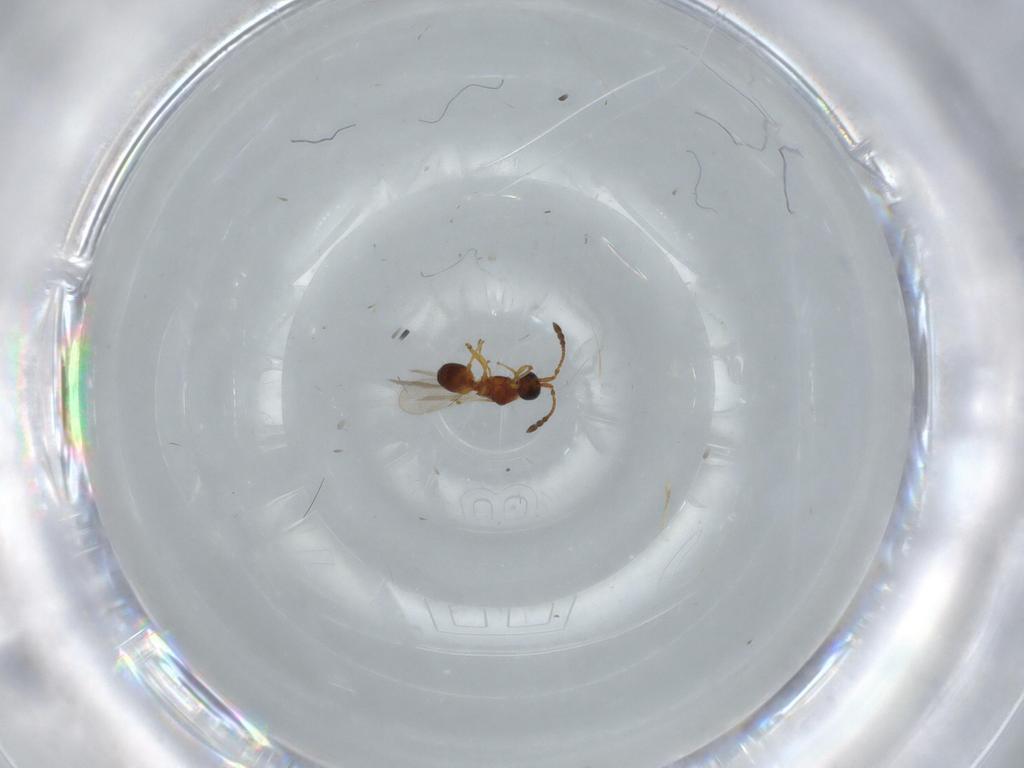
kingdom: Animalia
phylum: Arthropoda
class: Insecta
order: Hymenoptera
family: Diapriidae
